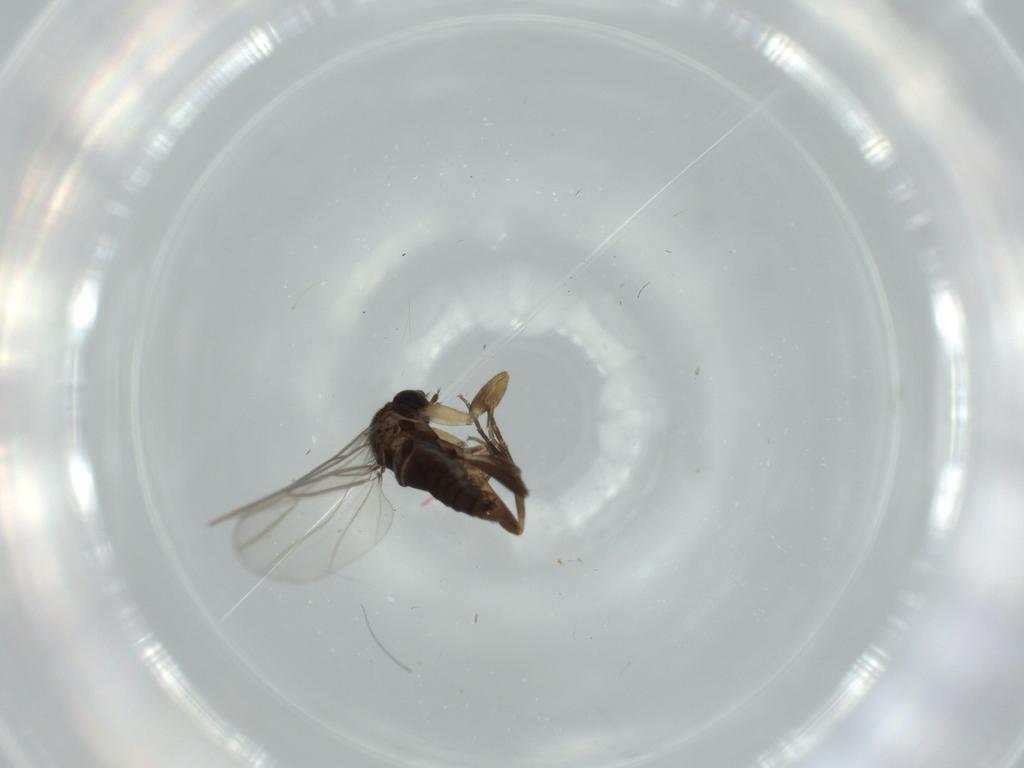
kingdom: Animalia
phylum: Arthropoda
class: Insecta
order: Diptera
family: Phoridae
